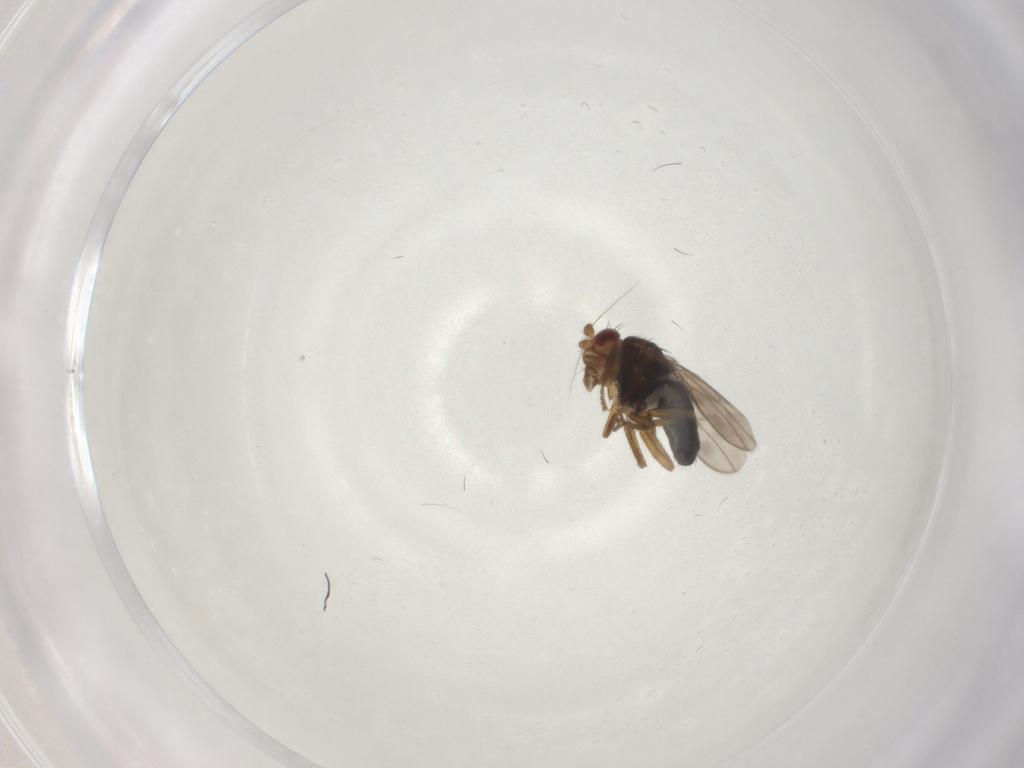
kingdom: Animalia
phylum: Arthropoda
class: Insecta
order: Diptera
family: Sphaeroceridae
